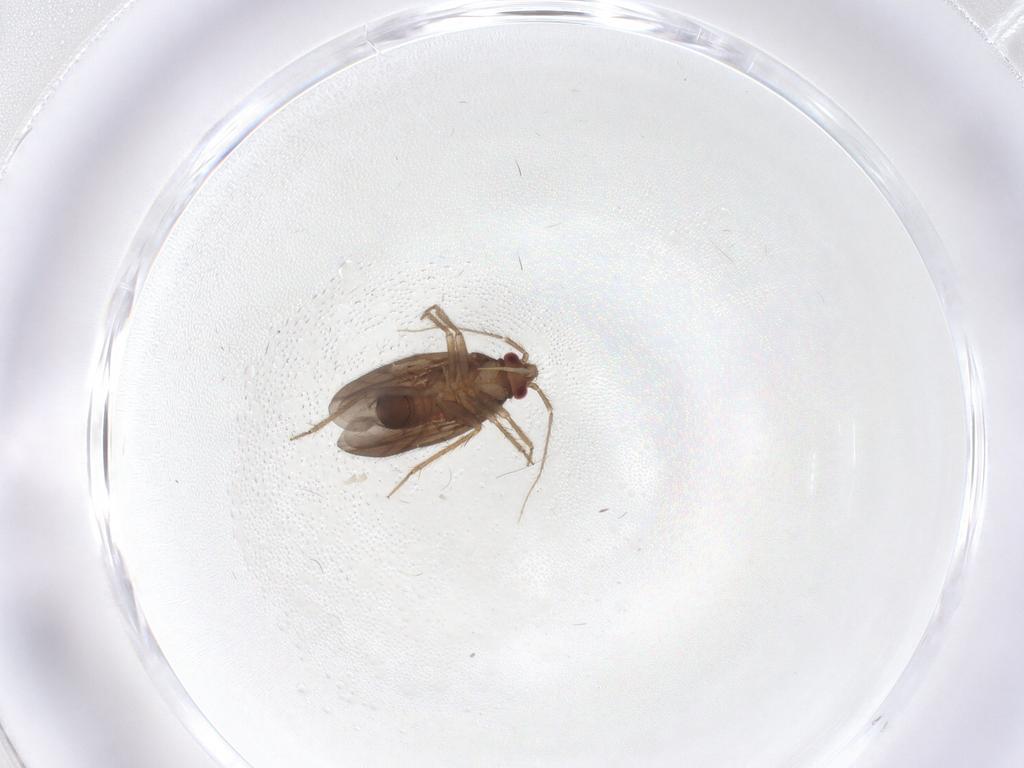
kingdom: Animalia
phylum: Arthropoda
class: Insecta
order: Hemiptera
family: Ceratocombidae
